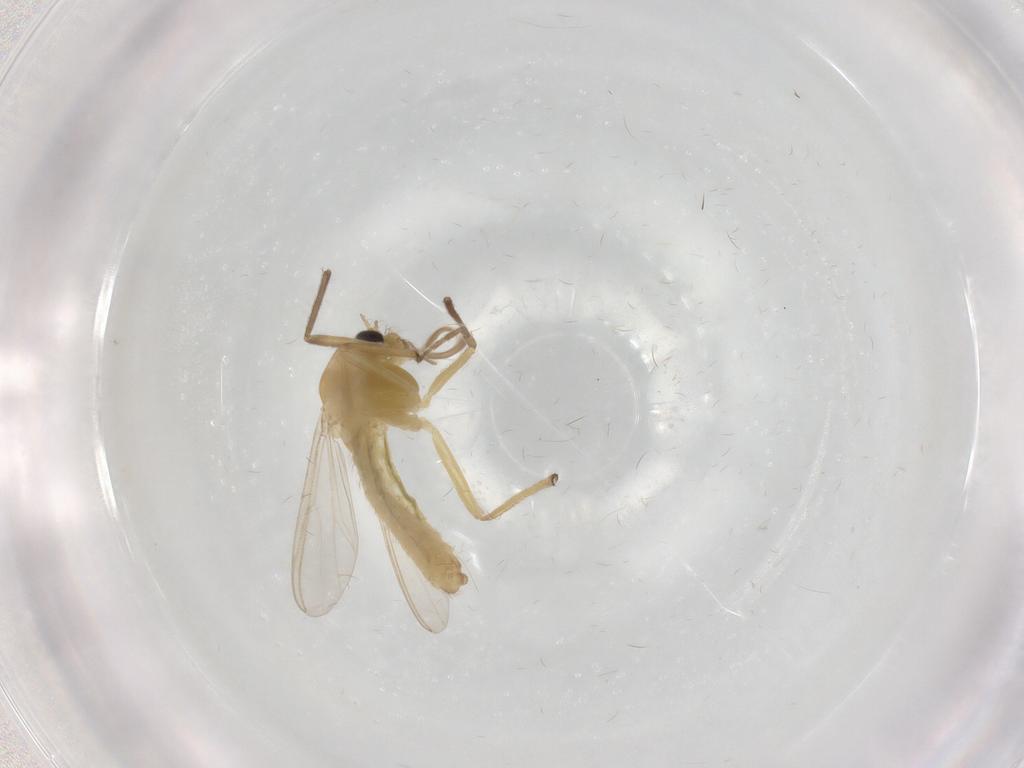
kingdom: Animalia
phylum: Arthropoda
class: Insecta
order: Diptera
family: Chironomidae
